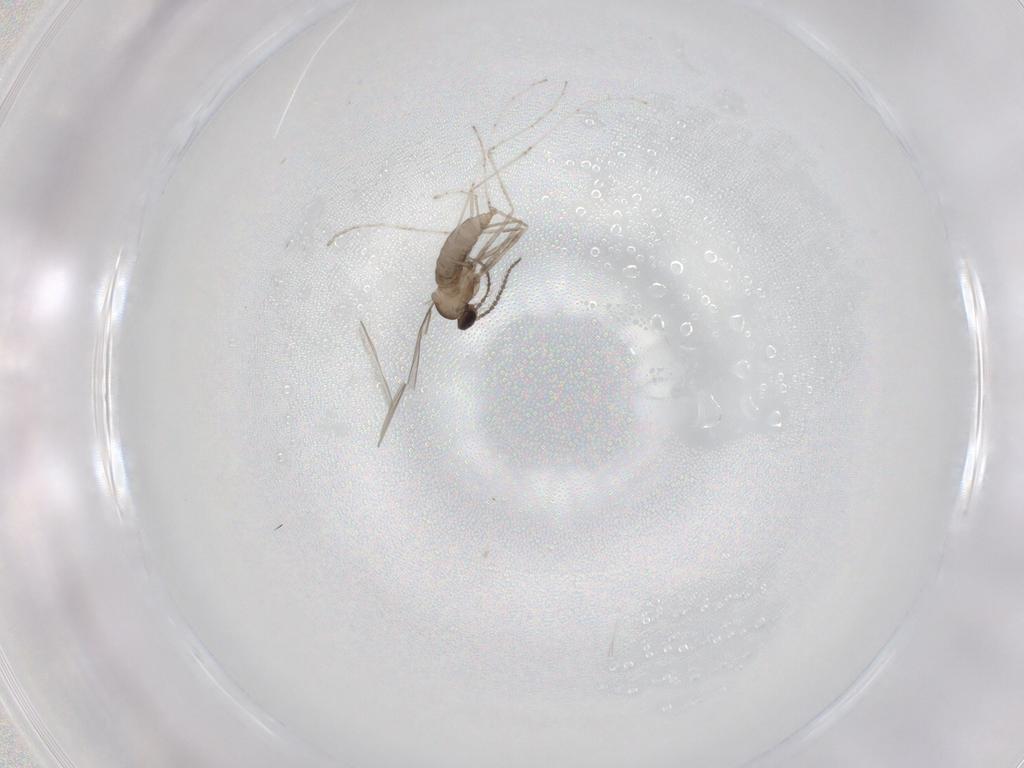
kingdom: Animalia
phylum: Arthropoda
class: Insecta
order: Diptera
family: Cecidomyiidae
